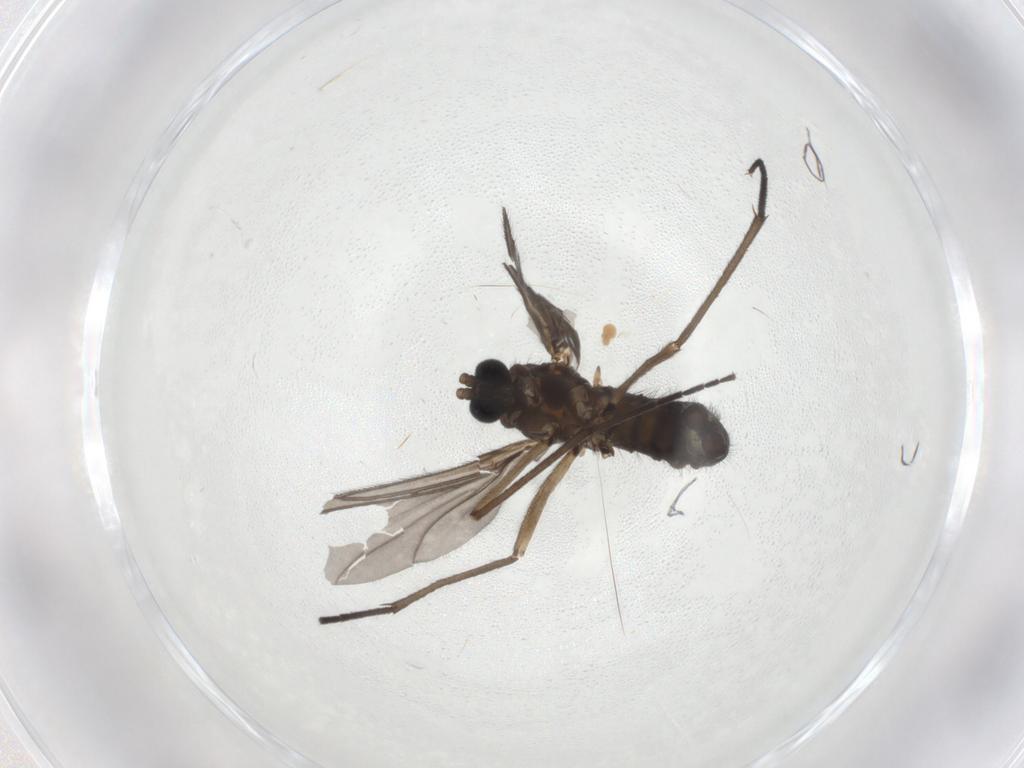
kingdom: Animalia
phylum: Arthropoda
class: Insecta
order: Diptera
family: Sciaridae
